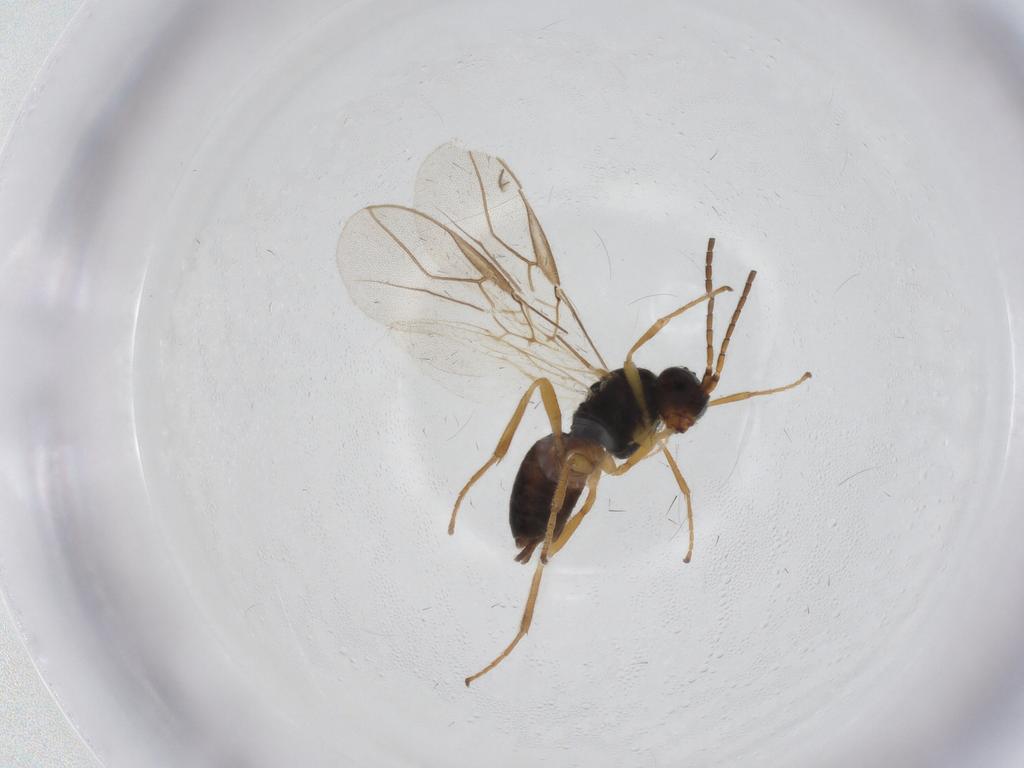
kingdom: Animalia
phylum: Arthropoda
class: Insecta
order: Hymenoptera
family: Braconidae
